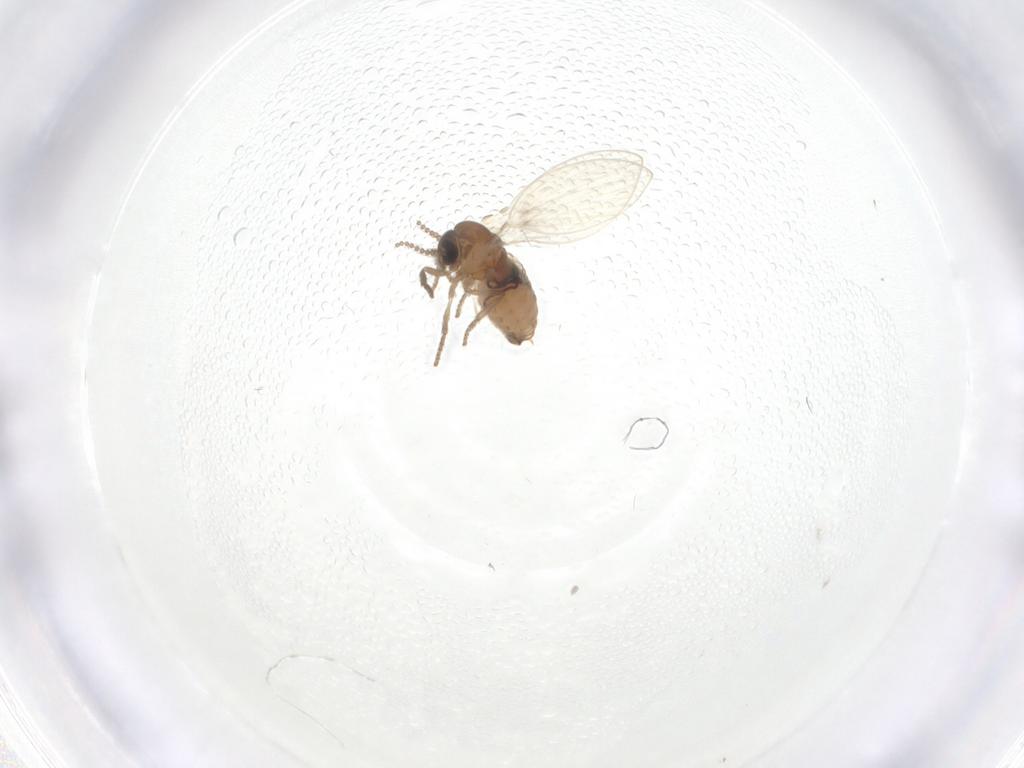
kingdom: Animalia
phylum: Arthropoda
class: Insecta
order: Diptera
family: Psychodidae
